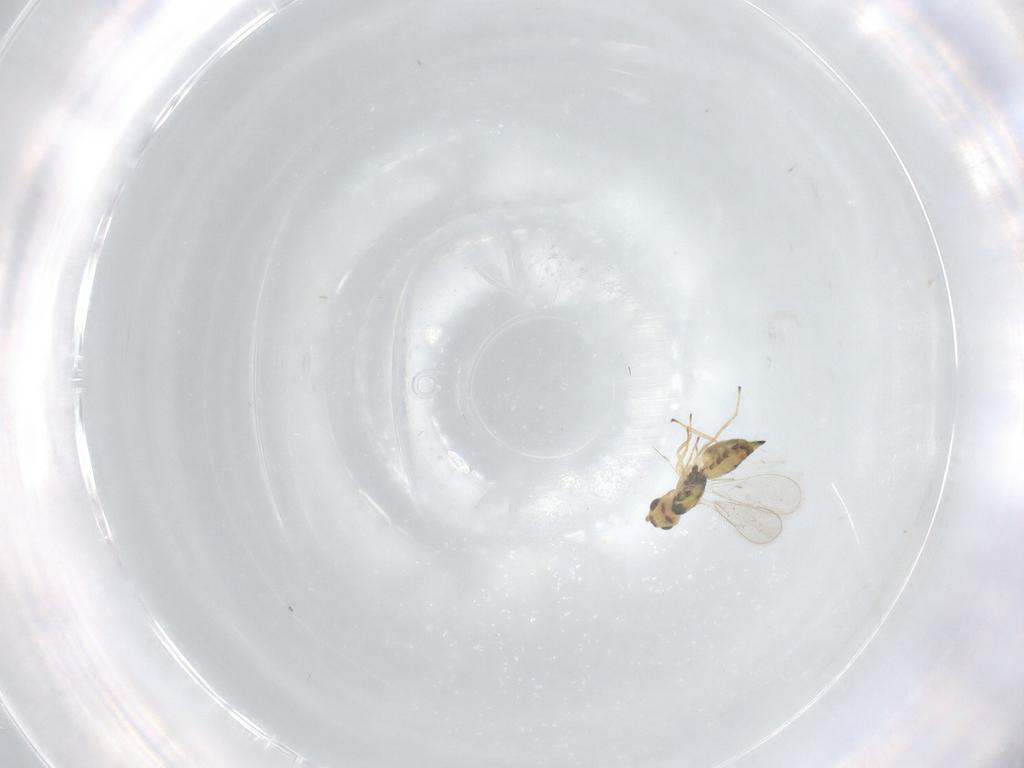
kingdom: Animalia
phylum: Arthropoda
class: Insecta
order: Hymenoptera
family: Eulophidae
